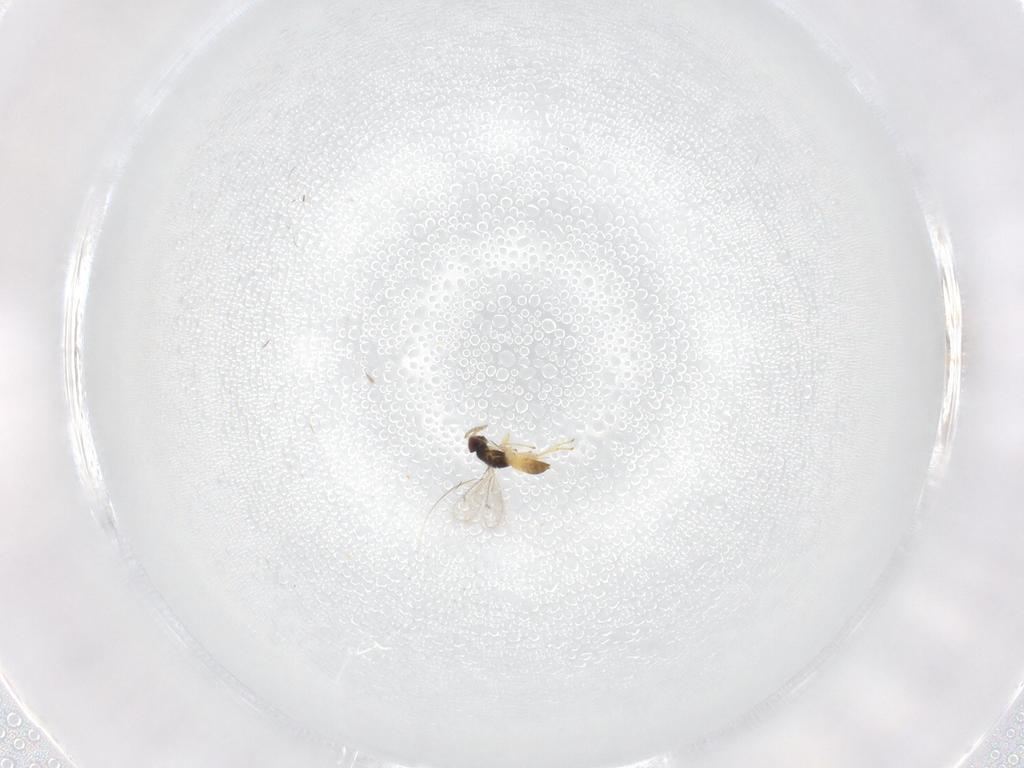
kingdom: Animalia
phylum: Arthropoda
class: Insecta
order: Hymenoptera
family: Eulophidae
